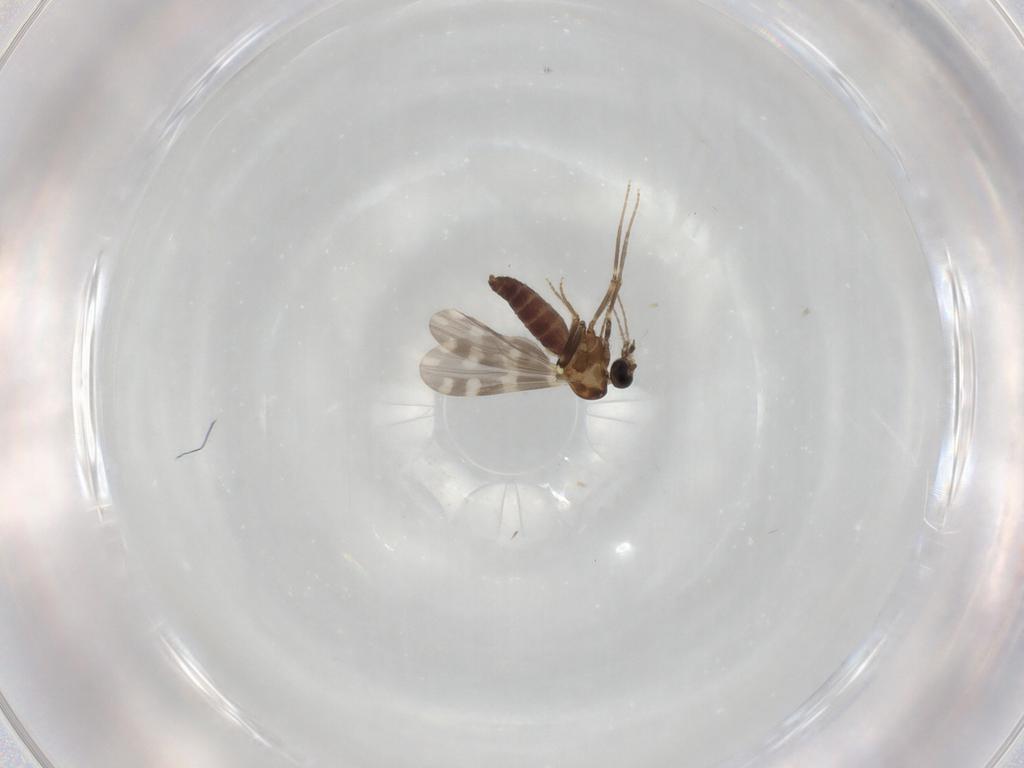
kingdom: Animalia
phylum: Arthropoda
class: Insecta
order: Diptera
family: Ceratopogonidae
